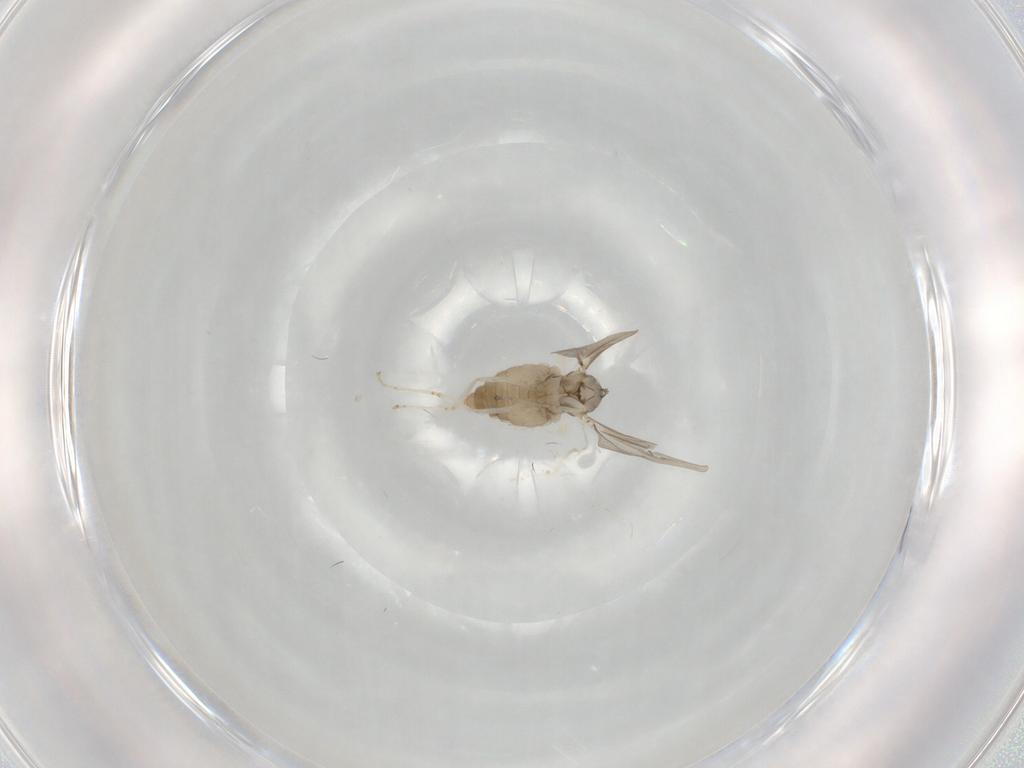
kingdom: Animalia
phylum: Arthropoda
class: Insecta
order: Diptera
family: Cecidomyiidae
